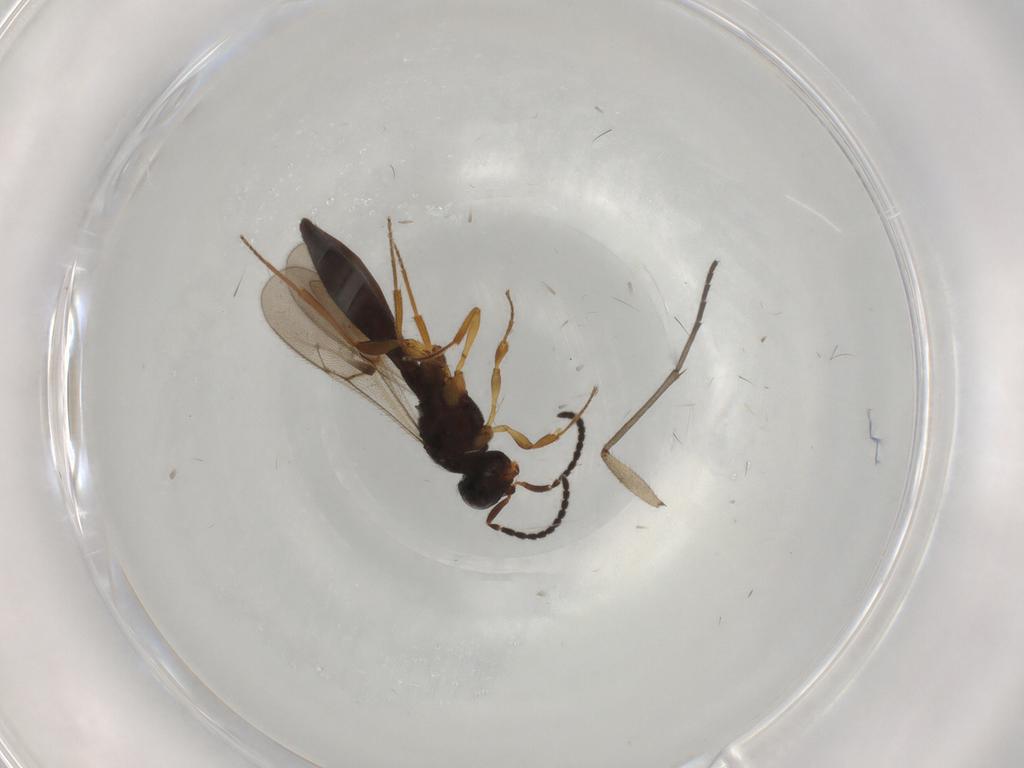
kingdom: Animalia
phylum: Arthropoda
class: Insecta
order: Hymenoptera
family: Scelionidae
